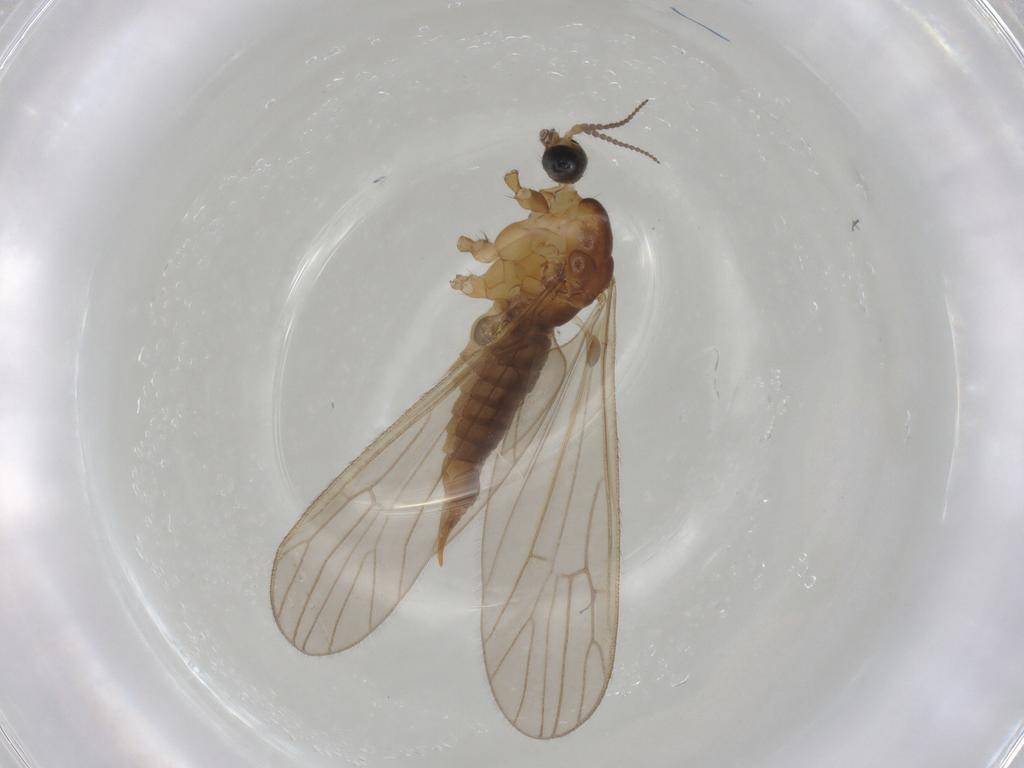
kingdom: Animalia
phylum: Arthropoda
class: Insecta
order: Diptera
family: Limoniidae
